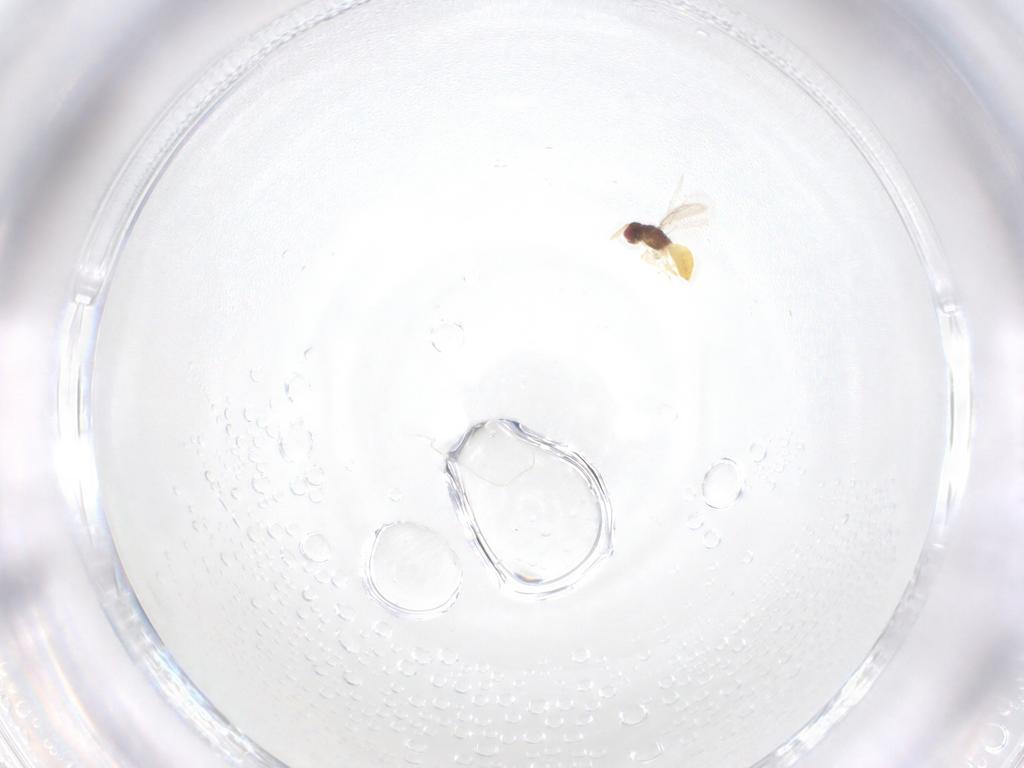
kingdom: Animalia
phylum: Arthropoda
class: Insecta
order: Hymenoptera
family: Eulophidae
